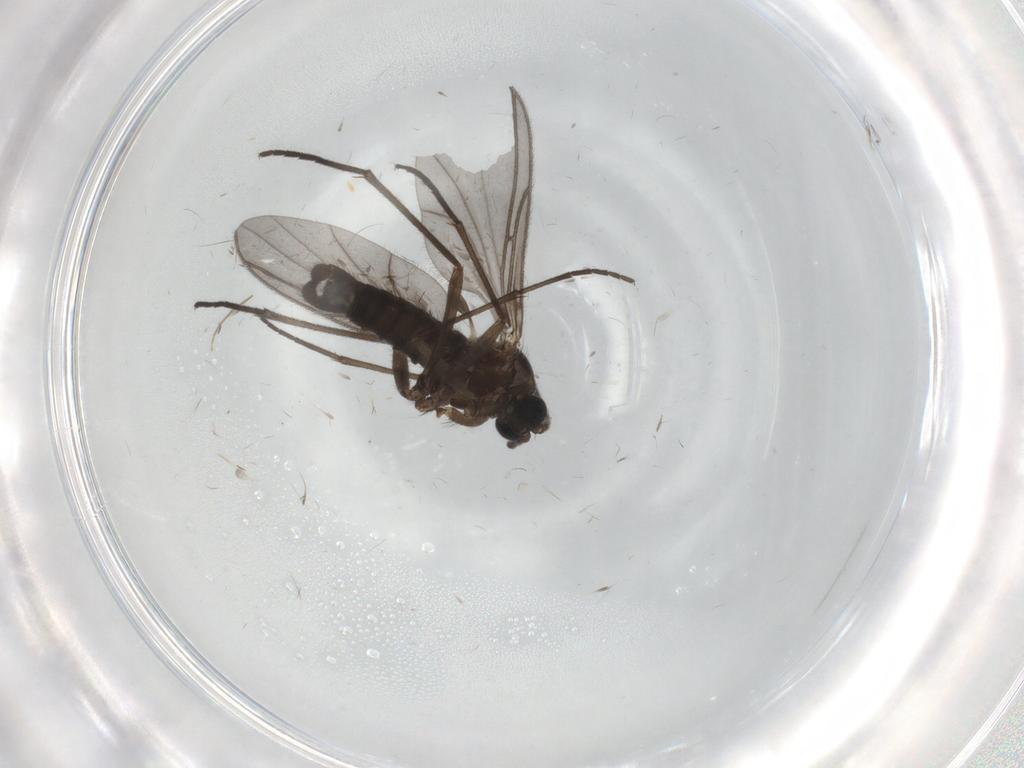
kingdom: Animalia
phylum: Arthropoda
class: Insecta
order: Diptera
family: Sciaridae
